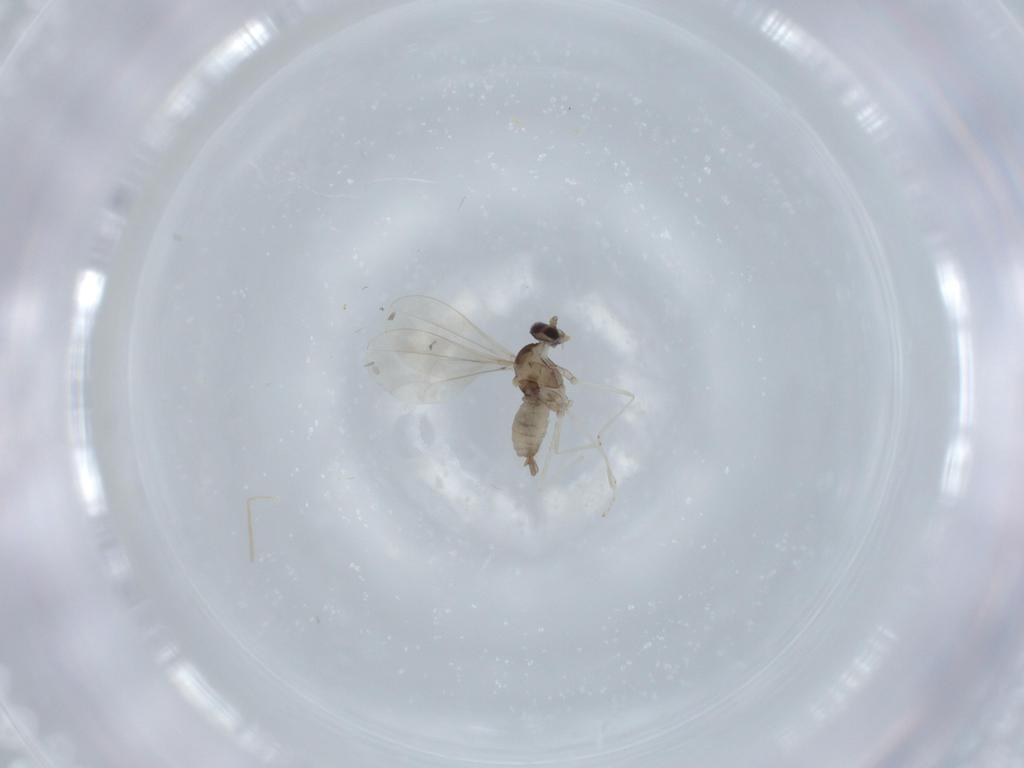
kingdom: Animalia
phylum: Arthropoda
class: Insecta
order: Diptera
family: Cecidomyiidae
